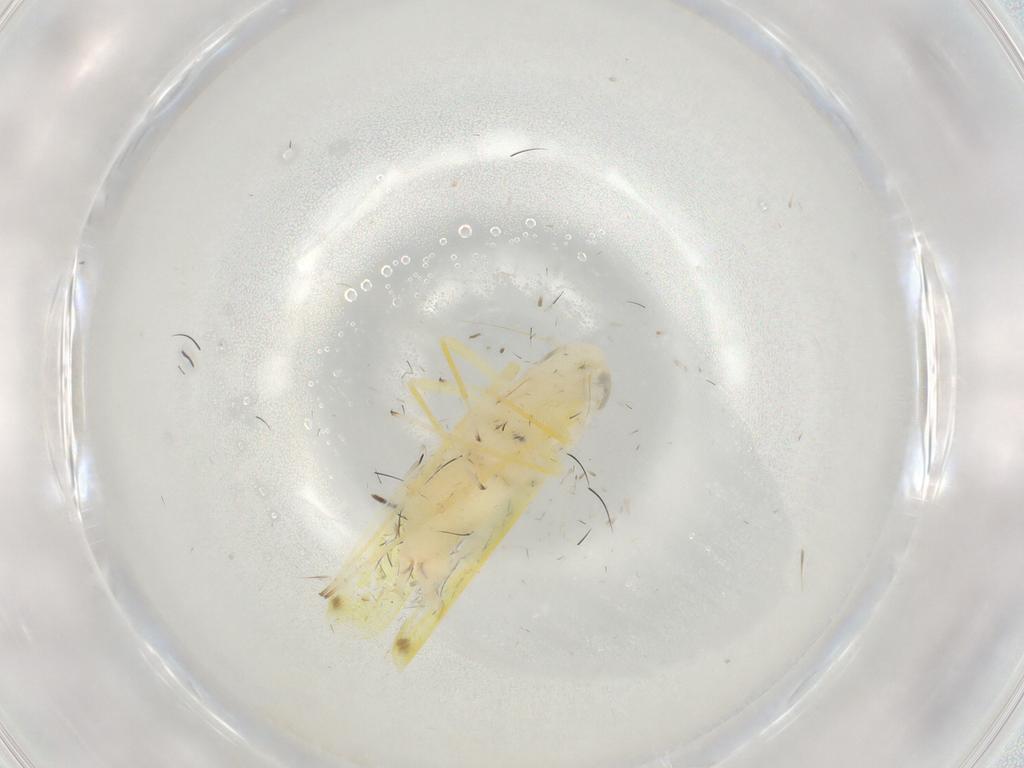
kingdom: Animalia
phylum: Arthropoda
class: Insecta
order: Hemiptera
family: Cicadellidae
